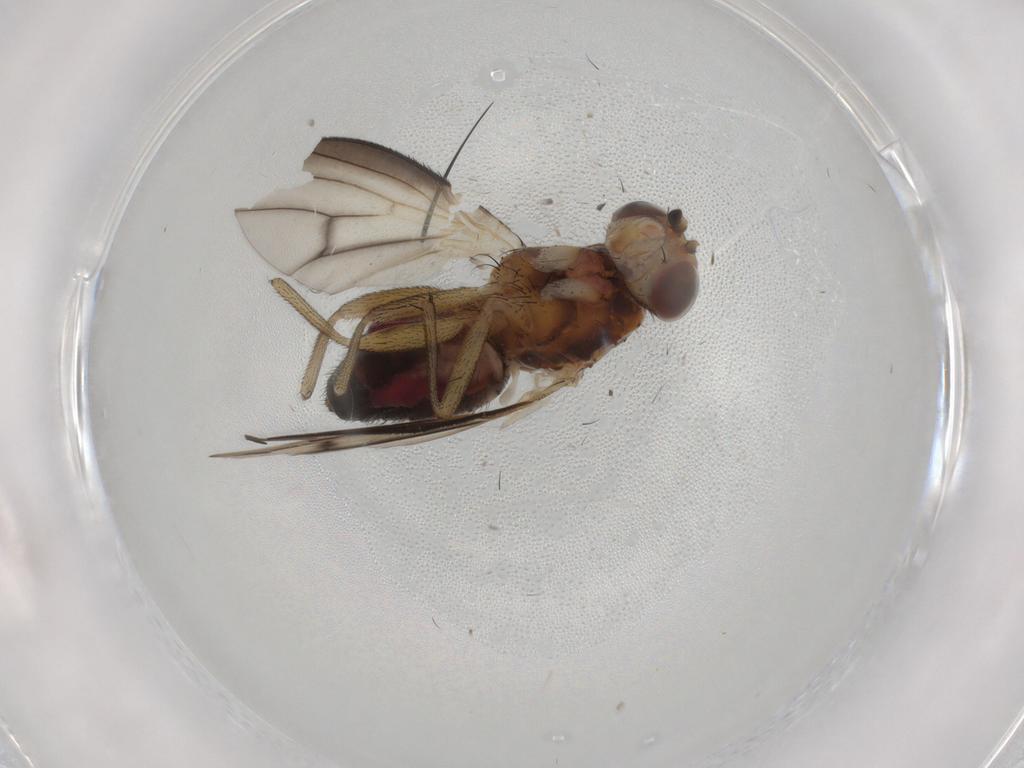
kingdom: Animalia
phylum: Arthropoda
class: Insecta
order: Diptera
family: Heleomyzidae
